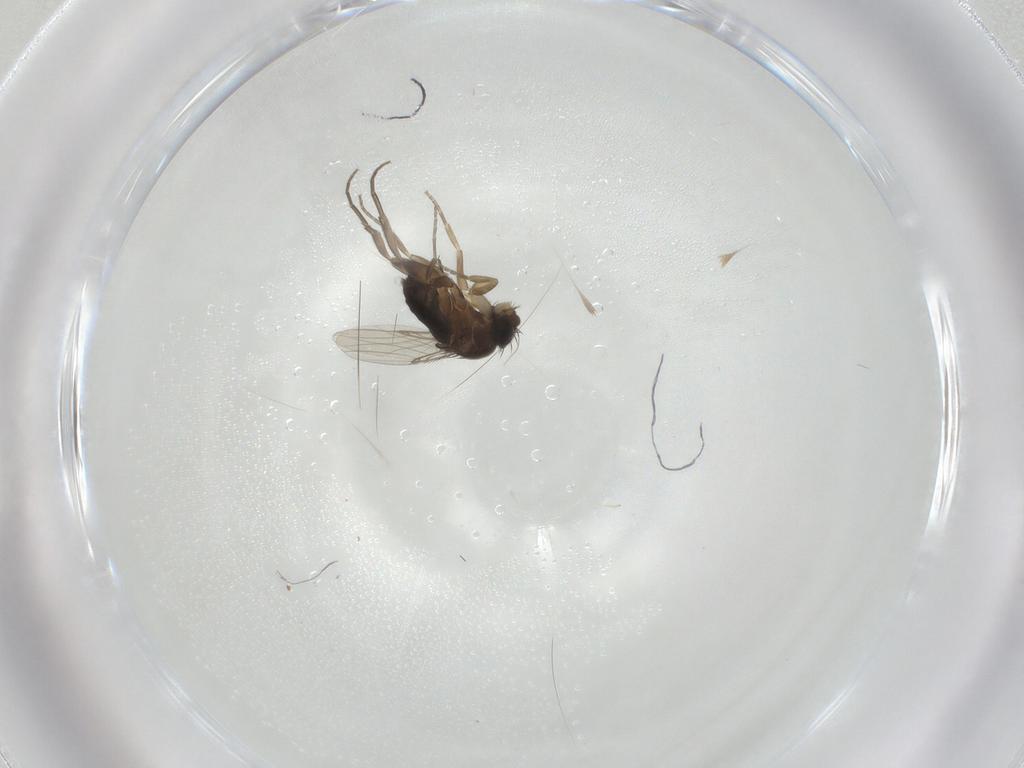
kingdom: Animalia
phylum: Arthropoda
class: Insecta
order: Diptera
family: Phoridae
